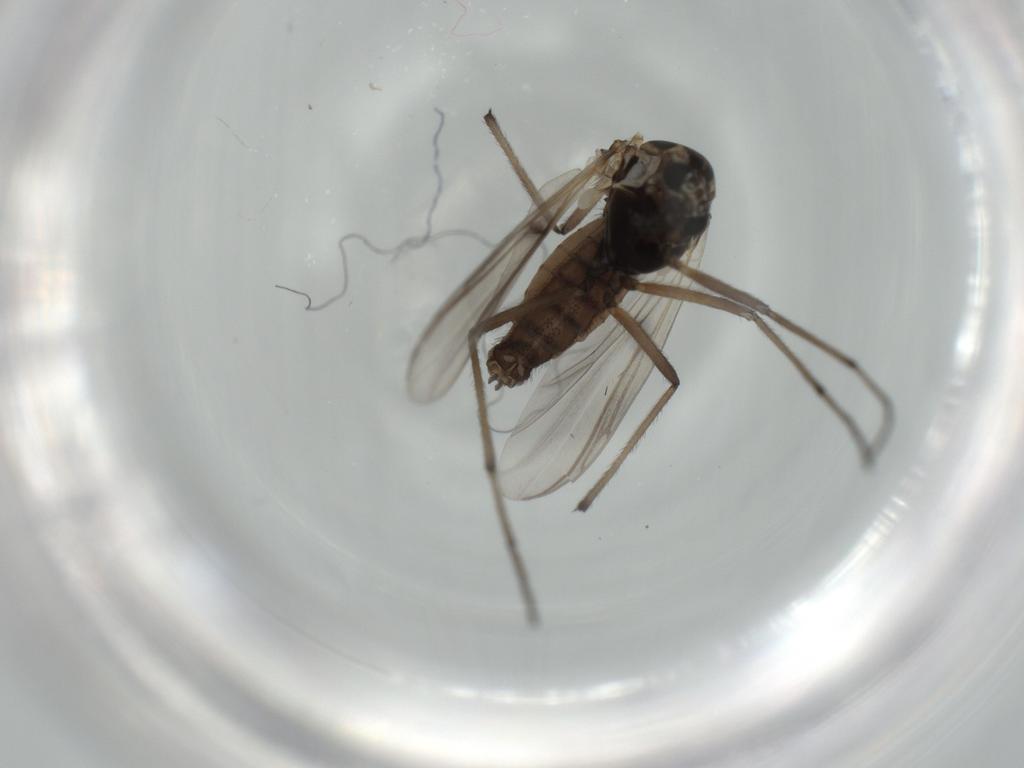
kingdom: Animalia
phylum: Arthropoda
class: Insecta
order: Diptera
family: Chironomidae
